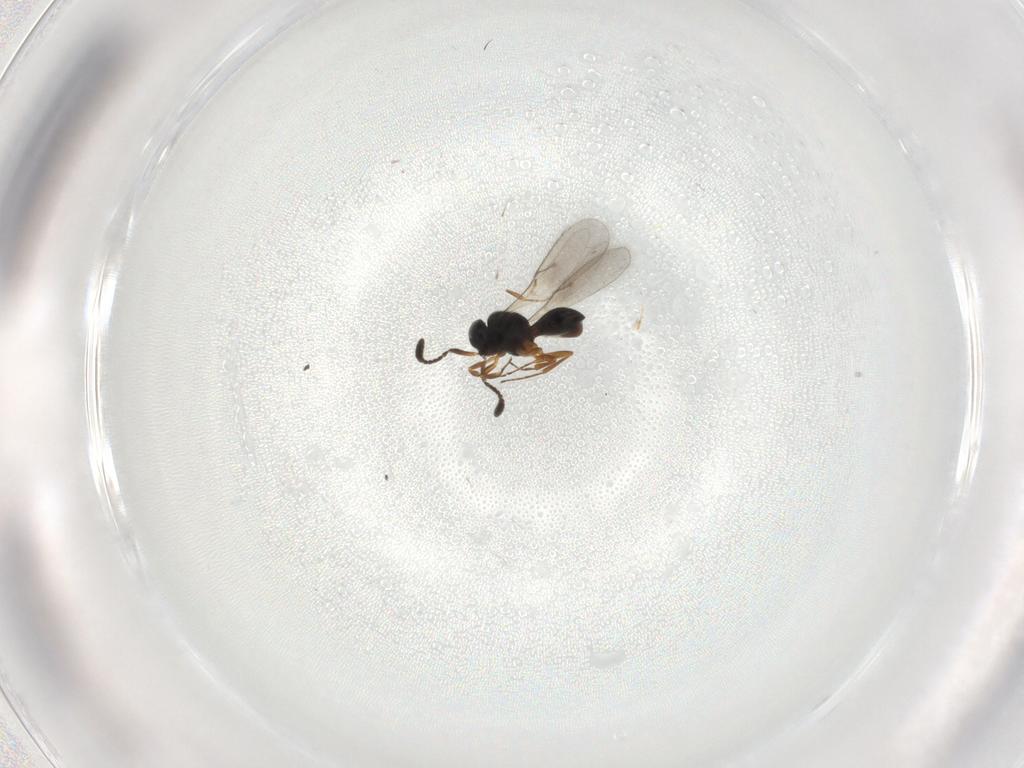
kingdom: Animalia
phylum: Arthropoda
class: Insecta
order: Hymenoptera
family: Scelionidae
